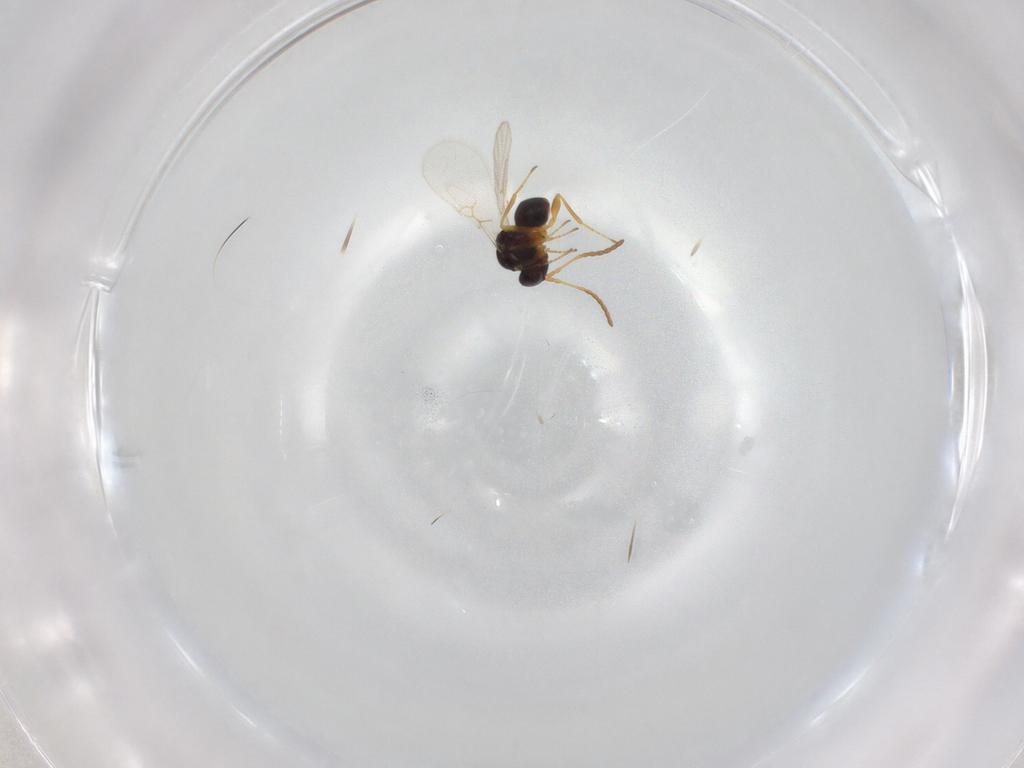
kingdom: Animalia
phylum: Arthropoda
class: Insecta
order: Hymenoptera
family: Figitidae
